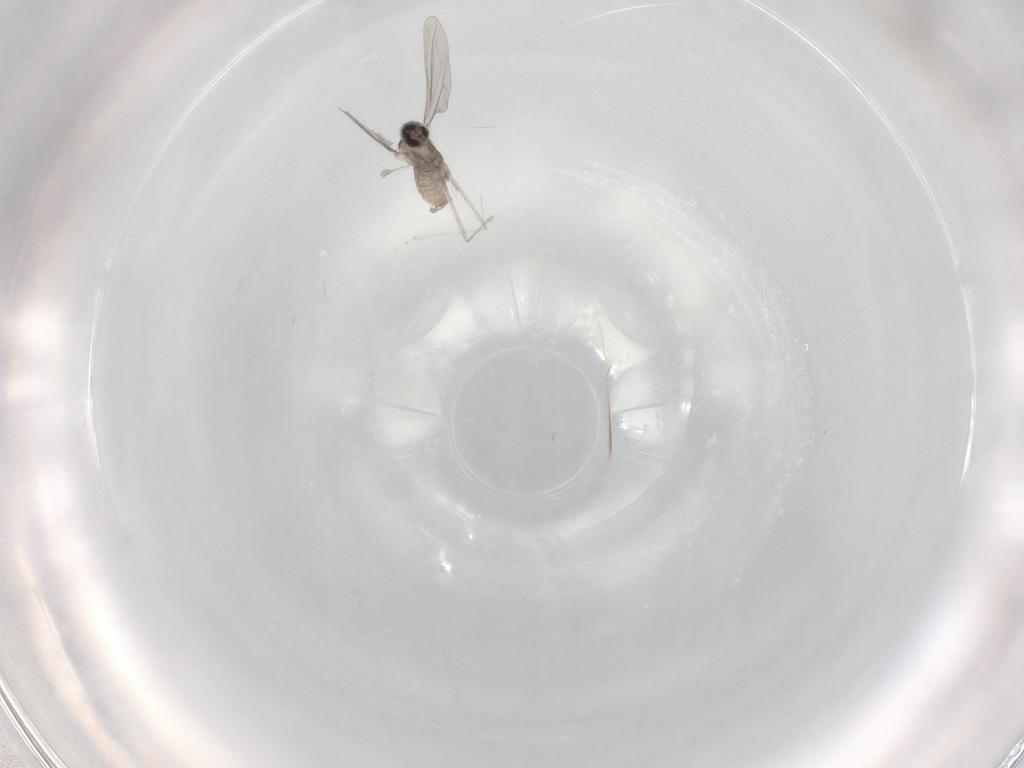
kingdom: Animalia
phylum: Arthropoda
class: Insecta
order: Diptera
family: Cecidomyiidae
